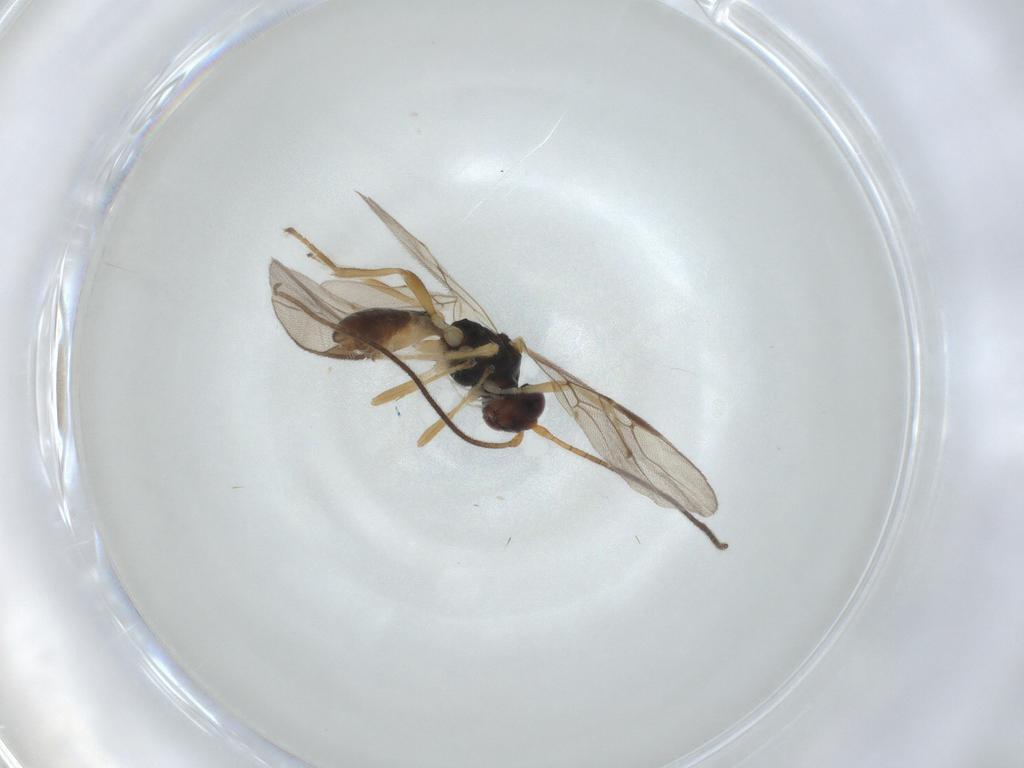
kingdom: Animalia
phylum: Arthropoda
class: Insecta
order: Hymenoptera
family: Braconidae
